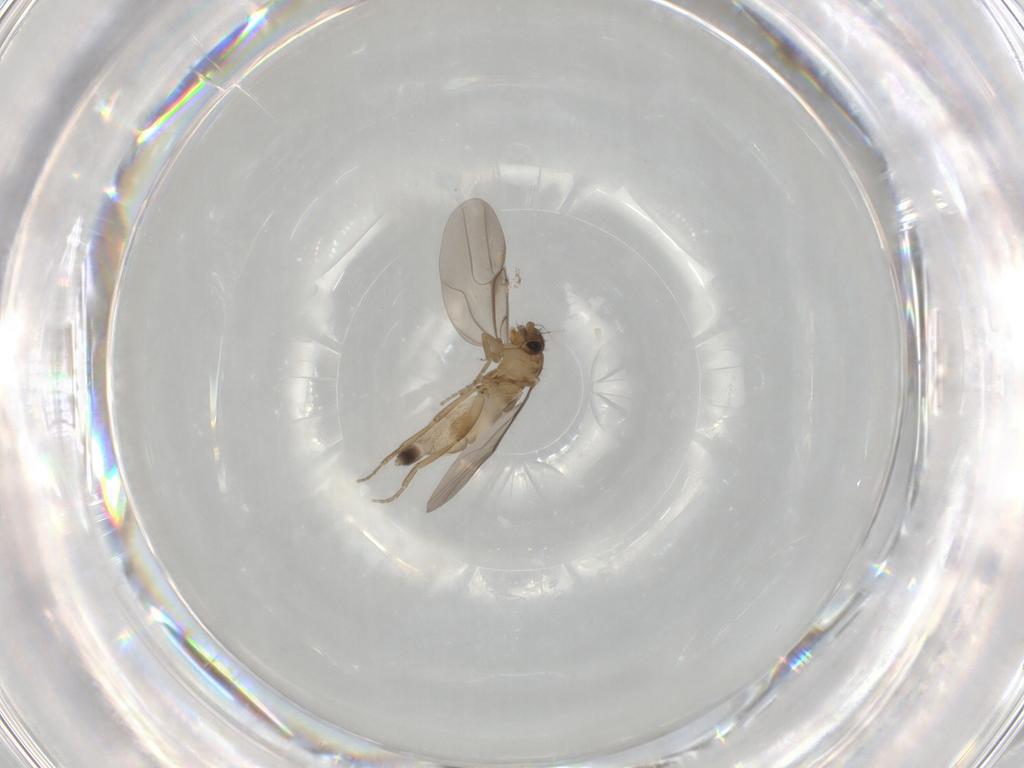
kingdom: Animalia
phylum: Arthropoda
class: Insecta
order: Diptera
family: Phoridae
